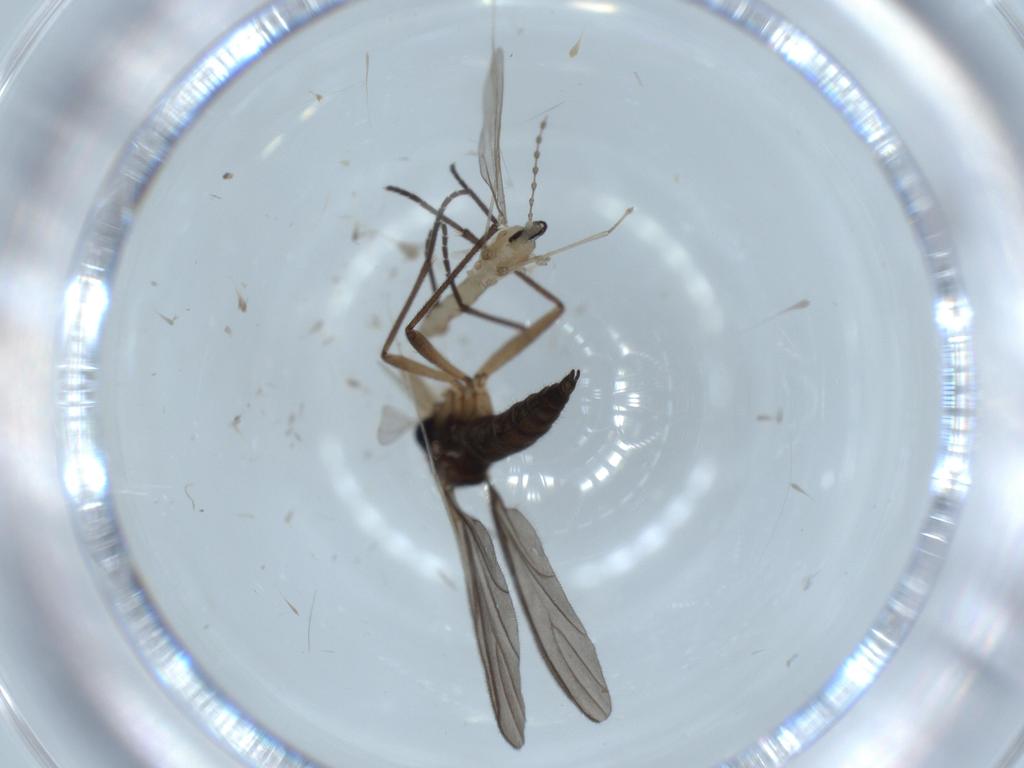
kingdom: Animalia
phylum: Arthropoda
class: Insecta
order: Diptera
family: Cecidomyiidae
